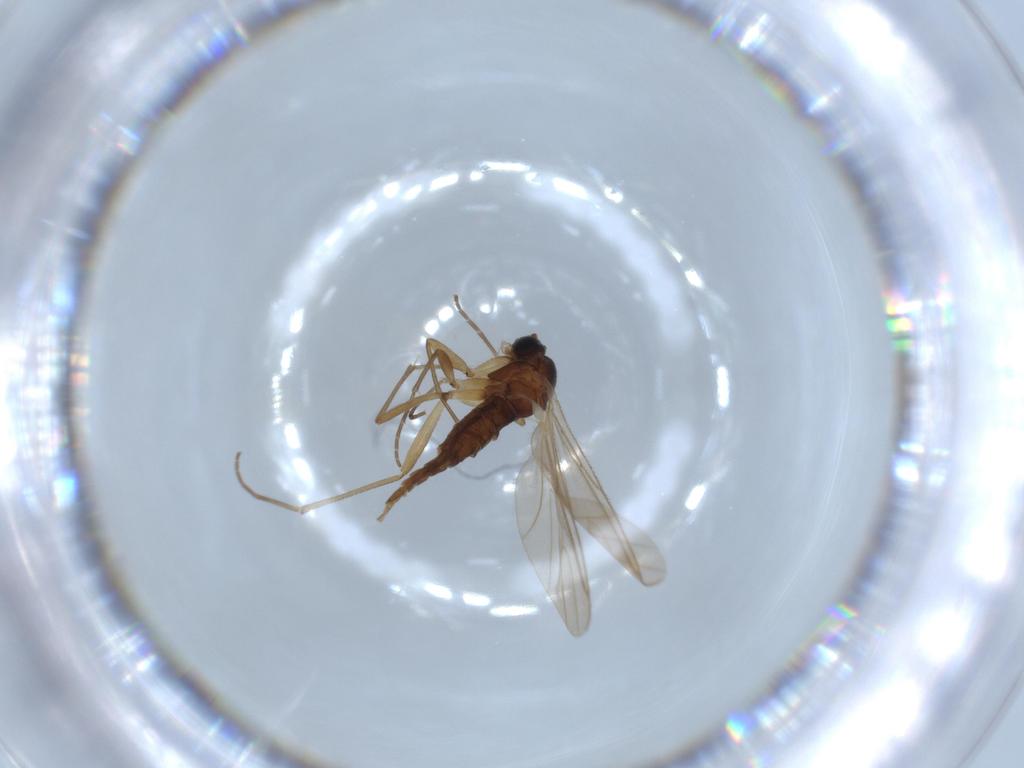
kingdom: Animalia
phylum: Arthropoda
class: Insecta
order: Diptera
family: Sciaridae
